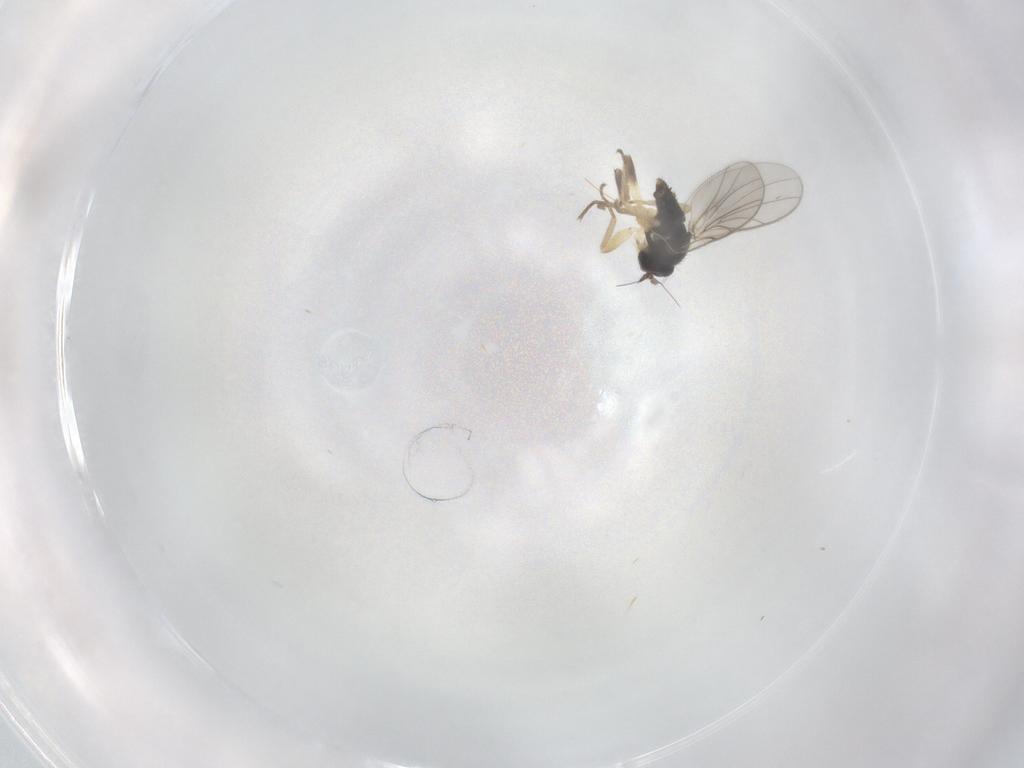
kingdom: Animalia
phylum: Arthropoda
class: Insecta
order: Diptera
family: Hybotidae
